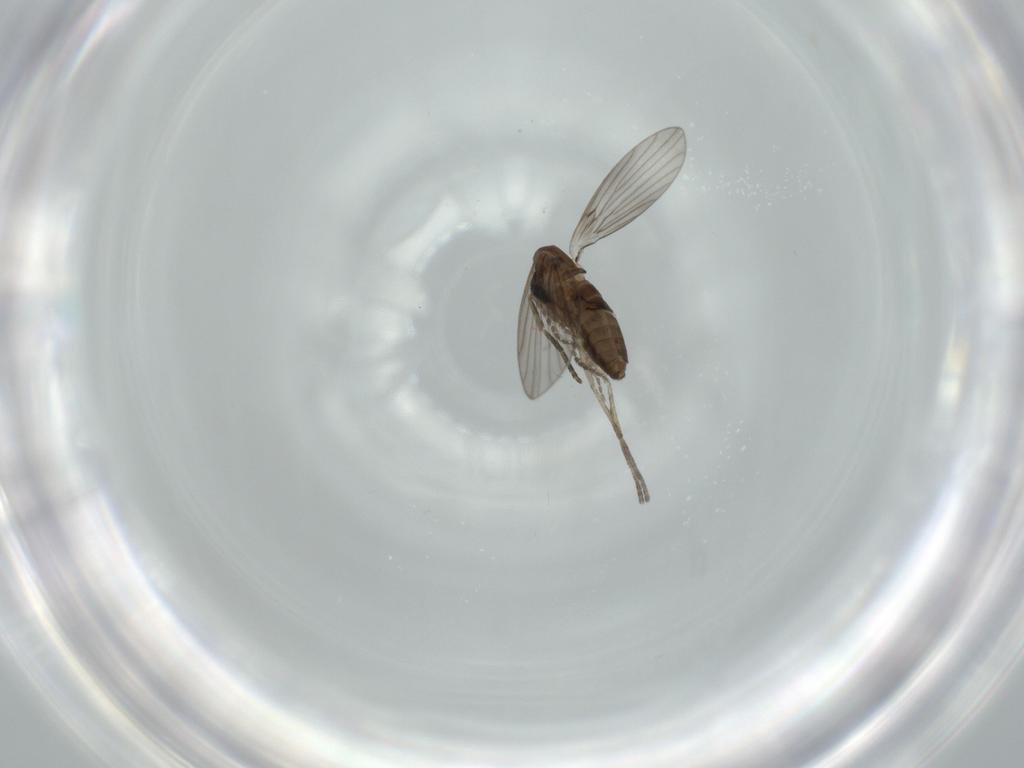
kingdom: Animalia
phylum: Arthropoda
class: Insecta
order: Diptera
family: Psychodidae
